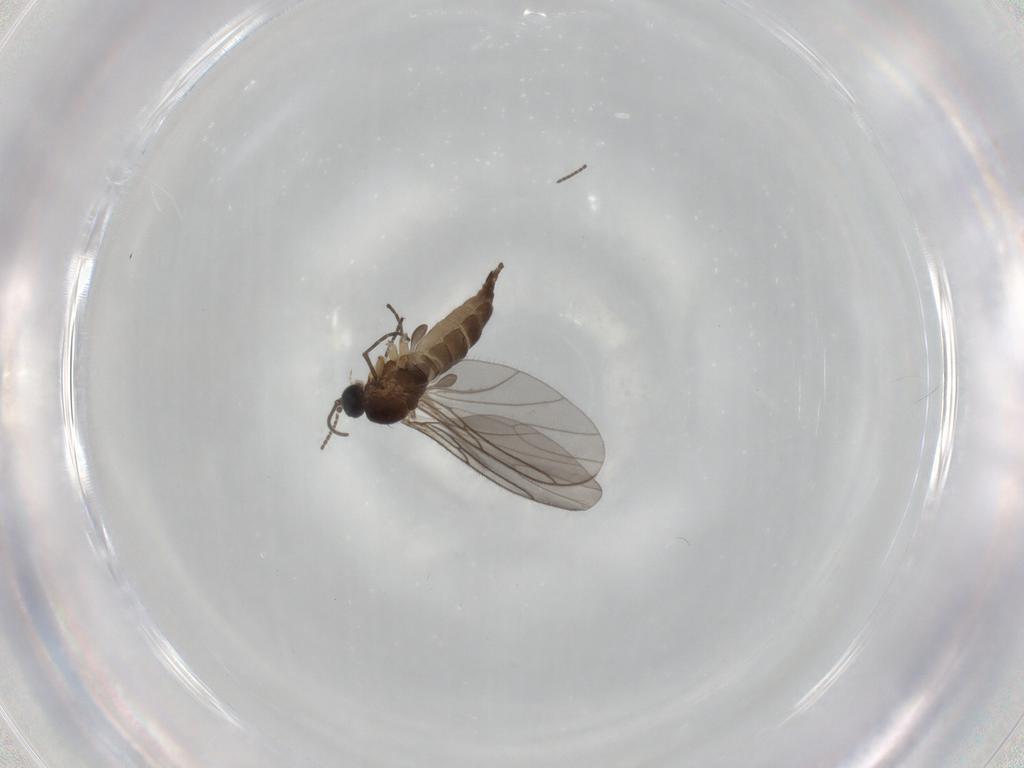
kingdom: Animalia
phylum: Arthropoda
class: Insecta
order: Diptera
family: Sciaridae
